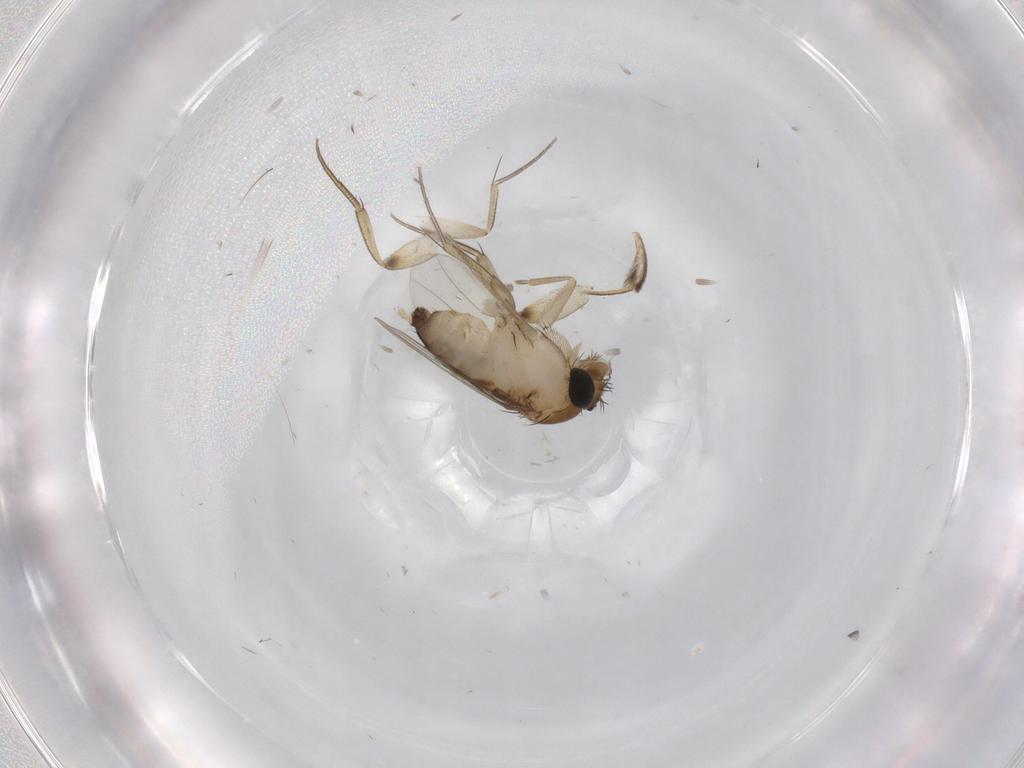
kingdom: Animalia
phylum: Arthropoda
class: Insecta
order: Diptera
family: Phoridae
